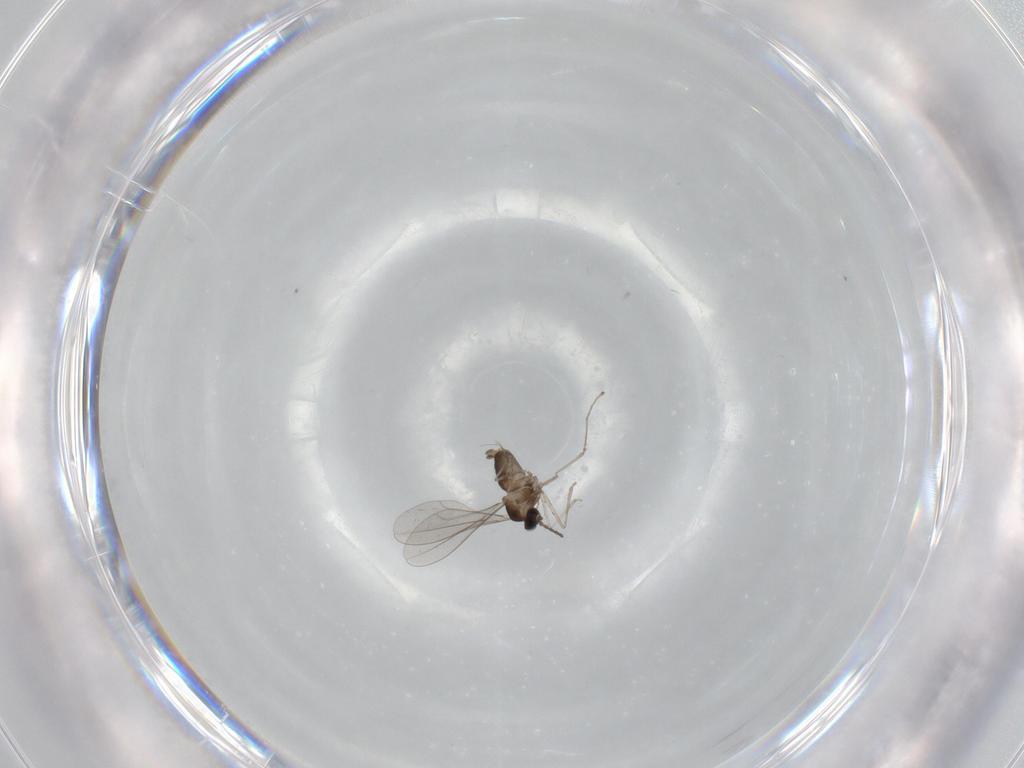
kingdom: Animalia
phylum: Arthropoda
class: Insecta
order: Diptera
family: Cecidomyiidae
